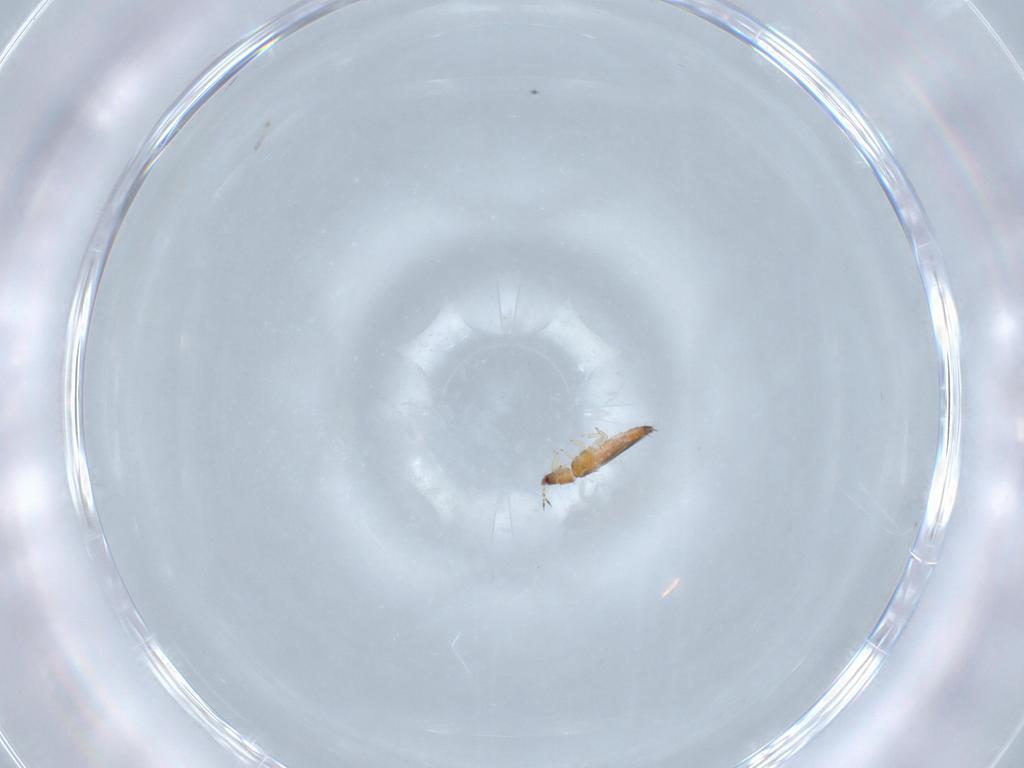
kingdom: Animalia
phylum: Arthropoda
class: Insecta
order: Thysanoptera
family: Thripidae
